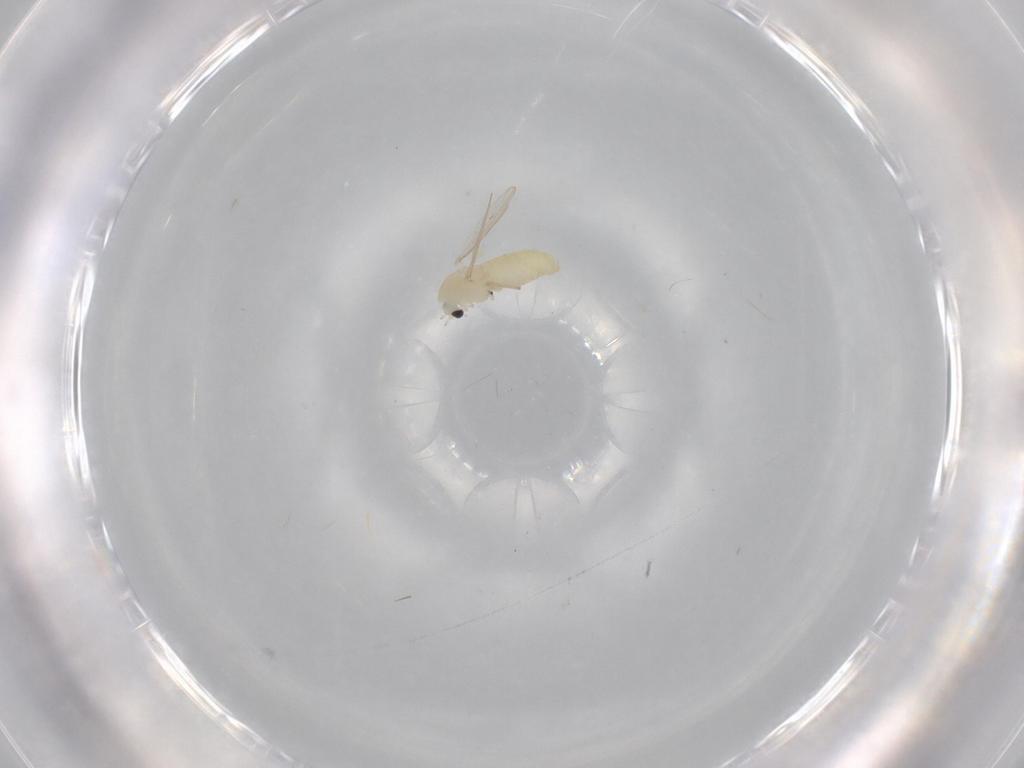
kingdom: Animalia
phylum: Arthropoda
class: Insecta
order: Diptera
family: Chironomidae
